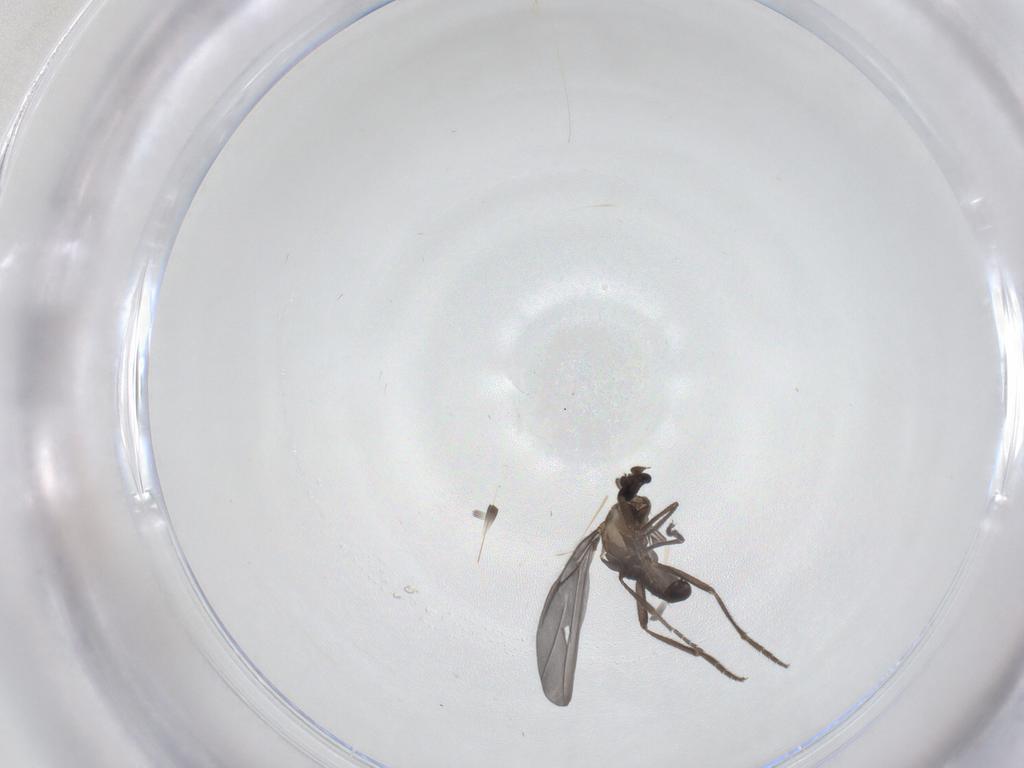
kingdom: Animalia
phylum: Arthropoda
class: Insecta
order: Diptera
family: Phoridae
